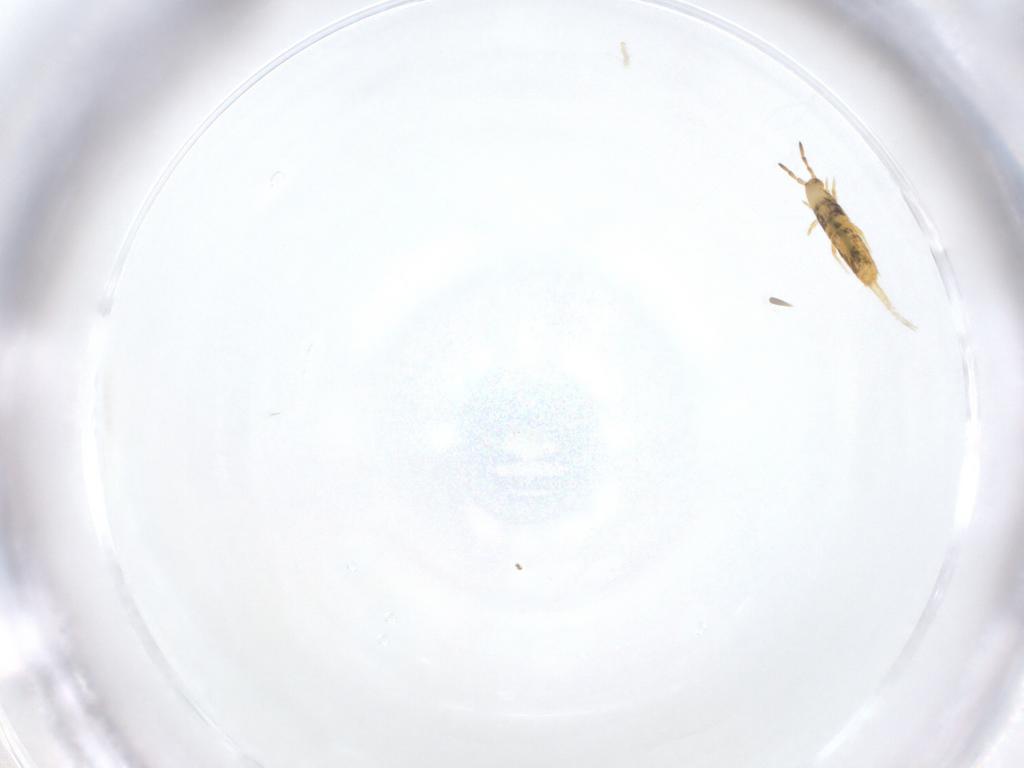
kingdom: Animalia
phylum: Arthropoda
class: Collembola
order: Entomobryomorpha
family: Entomobryidae
